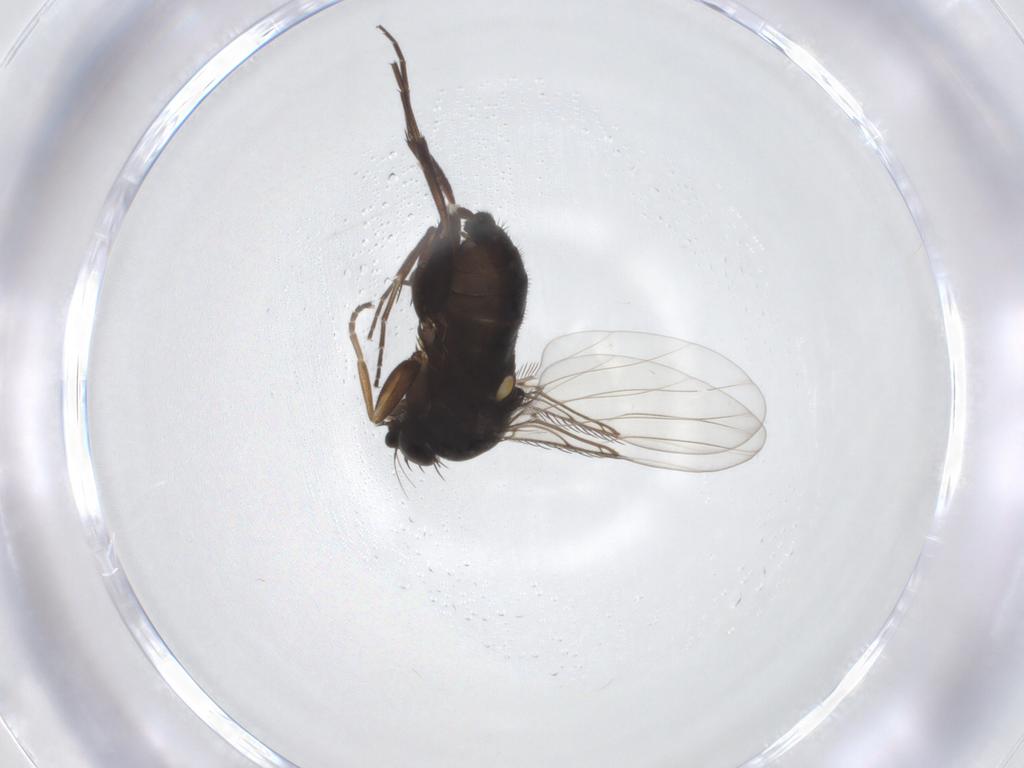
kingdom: Animalia
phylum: Arthropoda
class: Insecta
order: Diptera
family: Phoridae
